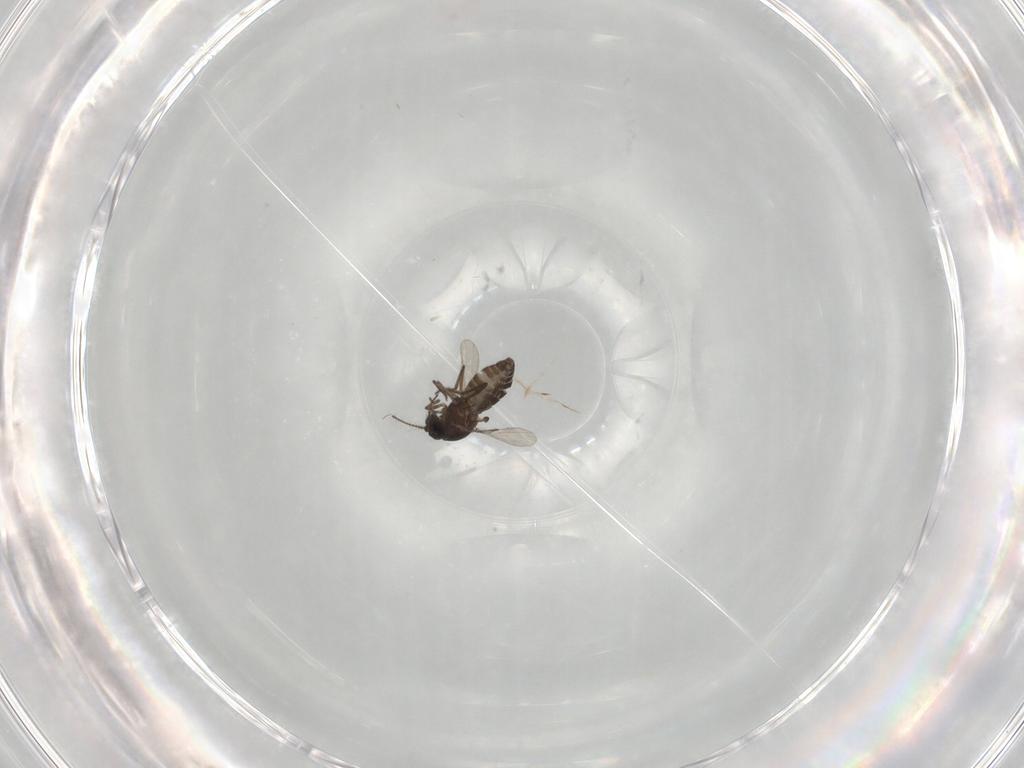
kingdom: Animalia
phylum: Arthropoda
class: Insecta
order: Diptera
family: Ceratopogonidae
